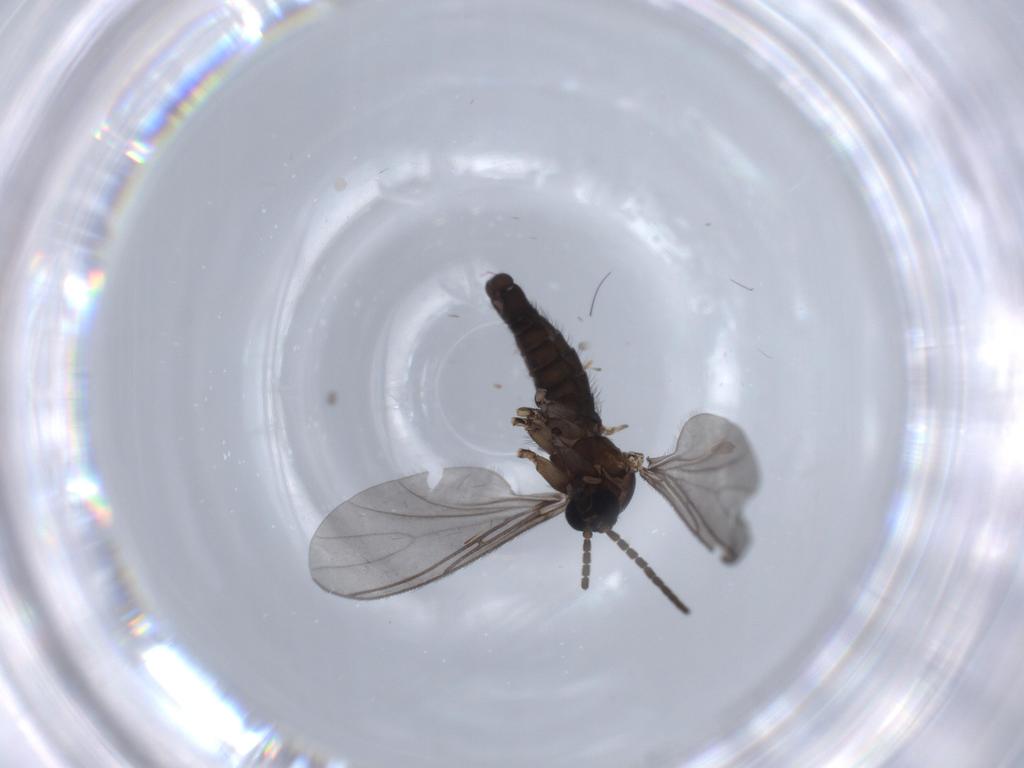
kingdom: Animalia
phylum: Arthropoda
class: Insecta
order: Diptera
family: Sciaridae
